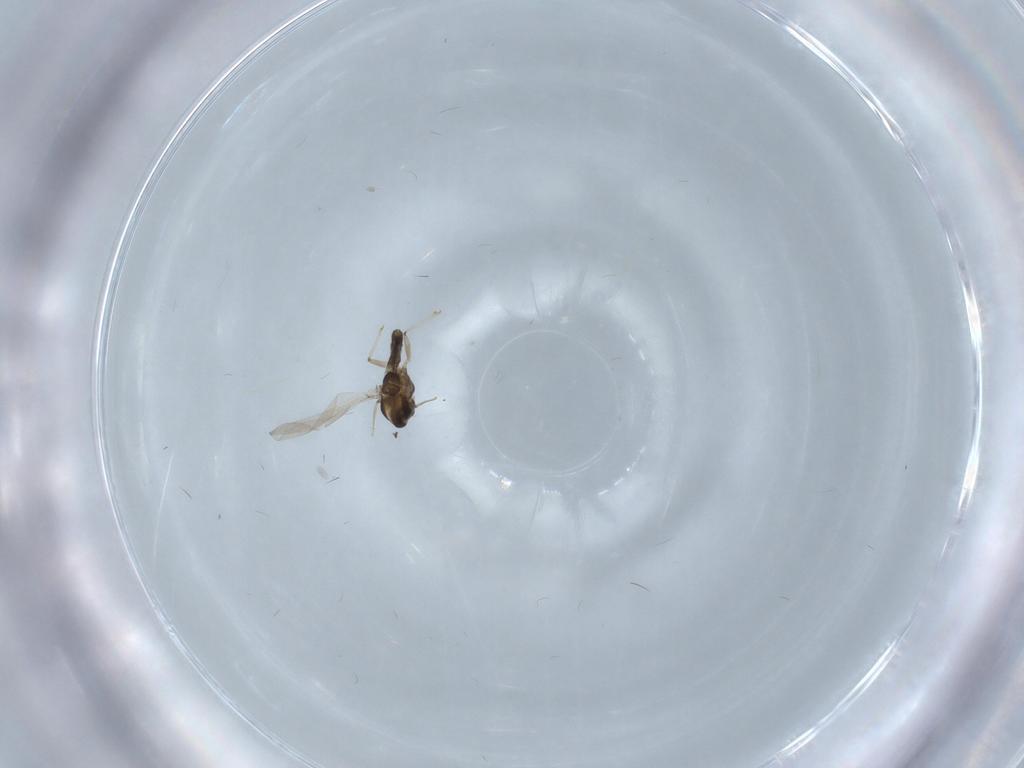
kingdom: Animalia
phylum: Arthropoda
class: Insecta
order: Diptera
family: Chironomidae
